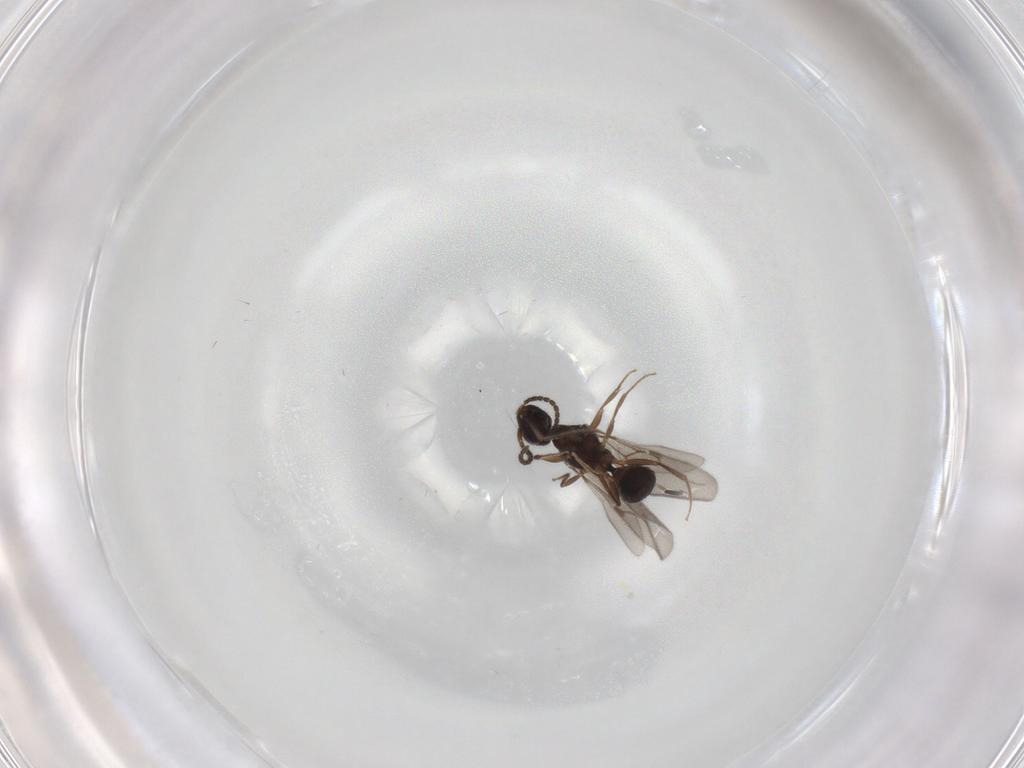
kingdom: Animalia
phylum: Arthropoda
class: Insecta
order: Hymenoptera
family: Bethylidae
